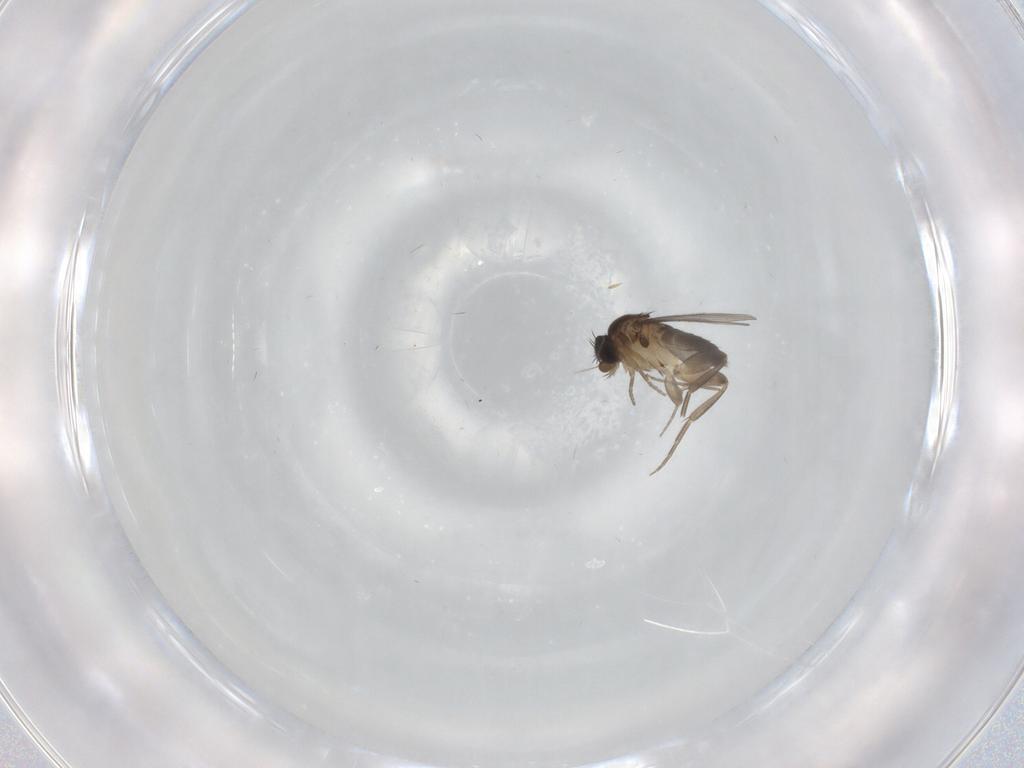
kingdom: Animalia
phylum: Arthropoda
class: Insecta
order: Diptera
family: Phoridae
